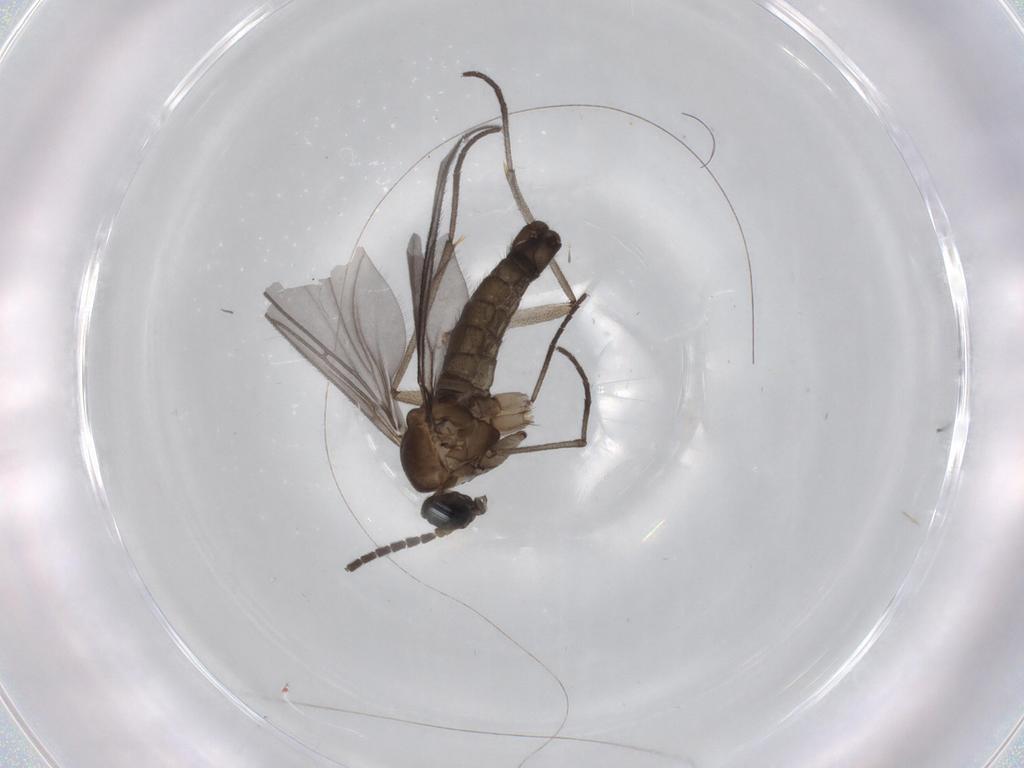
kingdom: Animalia
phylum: Arthropoda
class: Insecta
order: Diptera
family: Sciaridae
